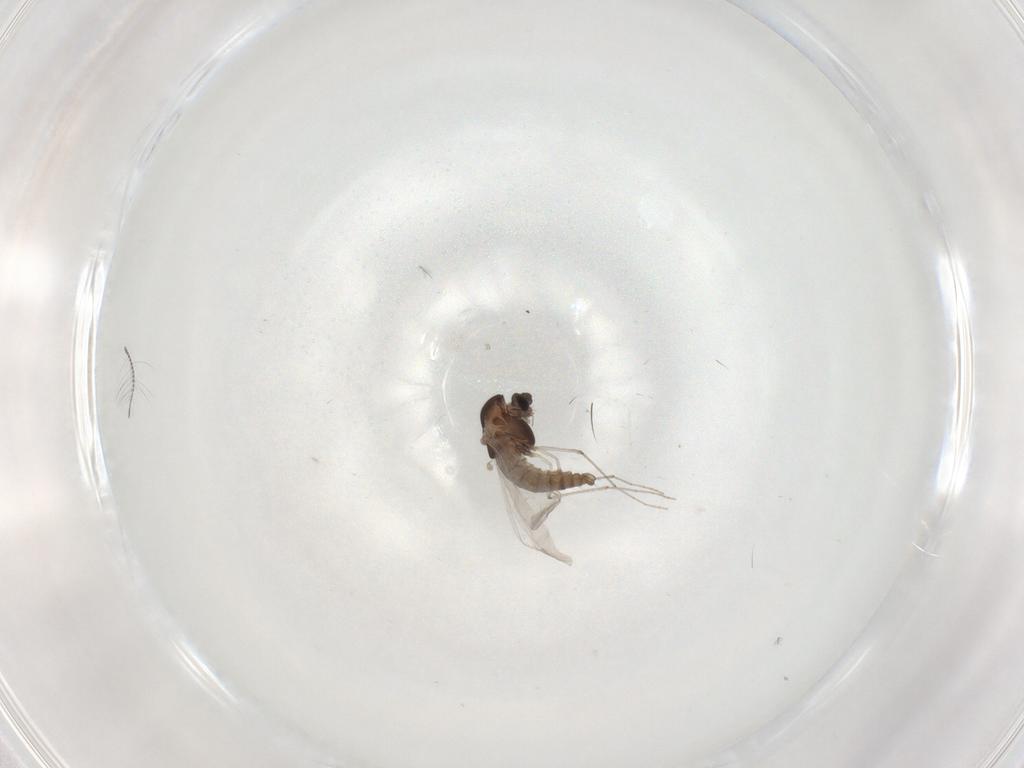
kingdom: Animalia
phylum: Arthropoda
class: Insecta
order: Diptera
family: Chironomidae
